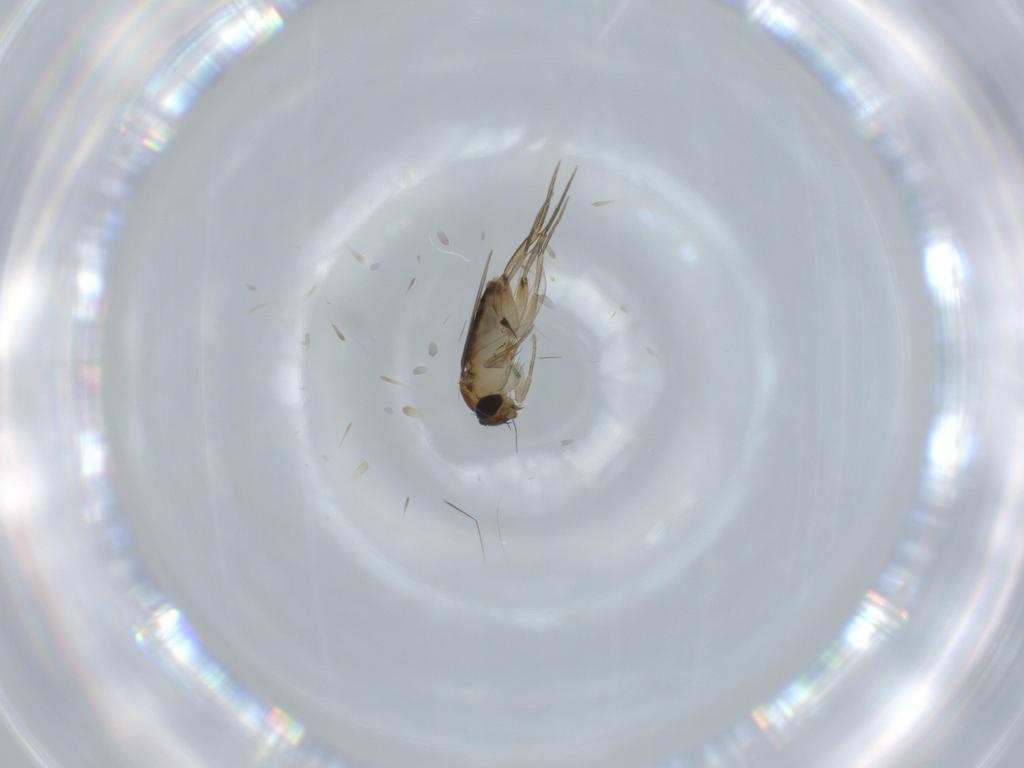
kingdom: Animalia
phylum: Arthropoda
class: Insecta
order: Diptera
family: Phoridae
